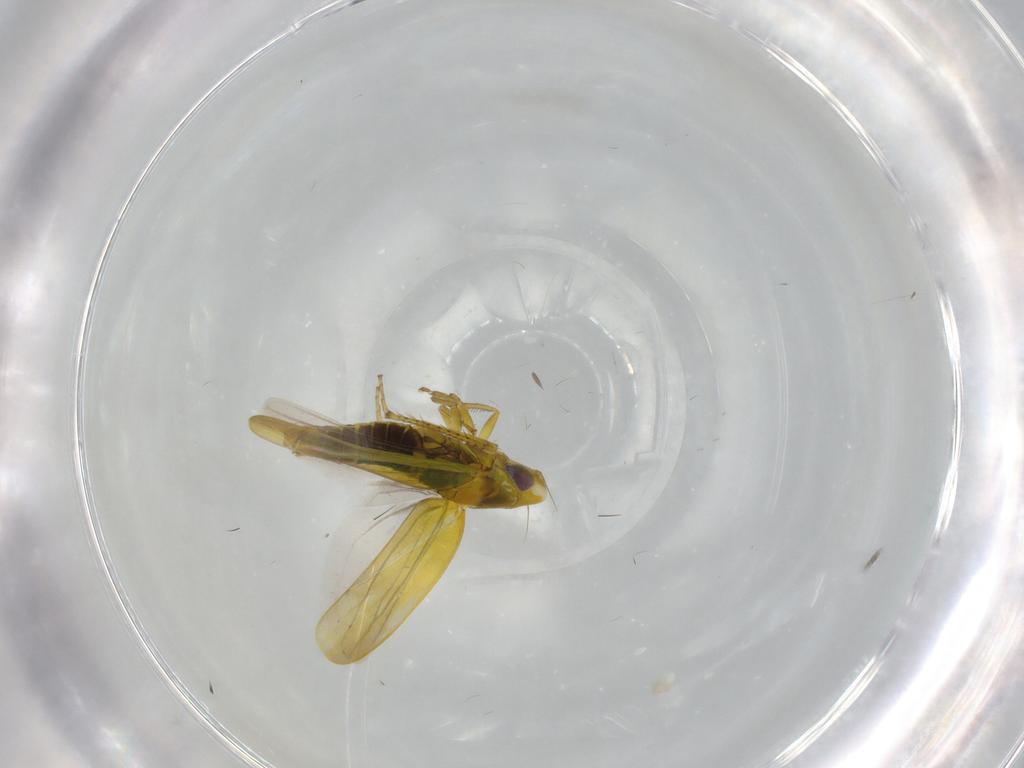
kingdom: Animalia
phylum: Arthropoda
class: Insecta
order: Hemiptera
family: Cicadellidae
